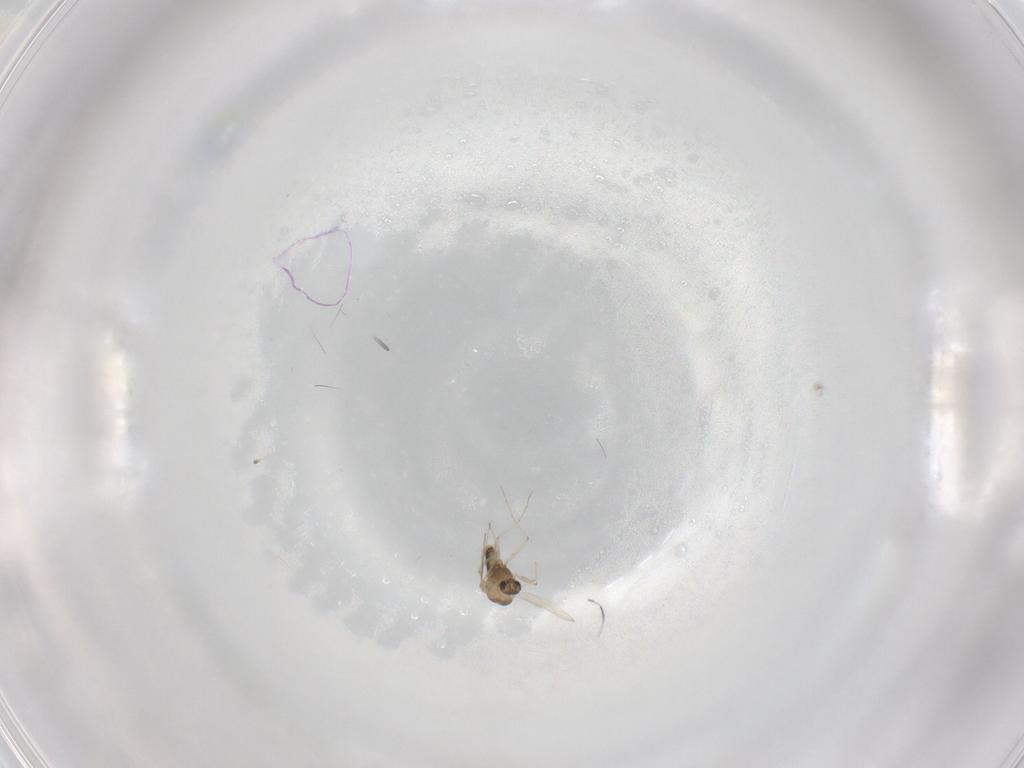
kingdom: Animalia
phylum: Arthropoda
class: Insecta
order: Diptera
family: Chironomidae
